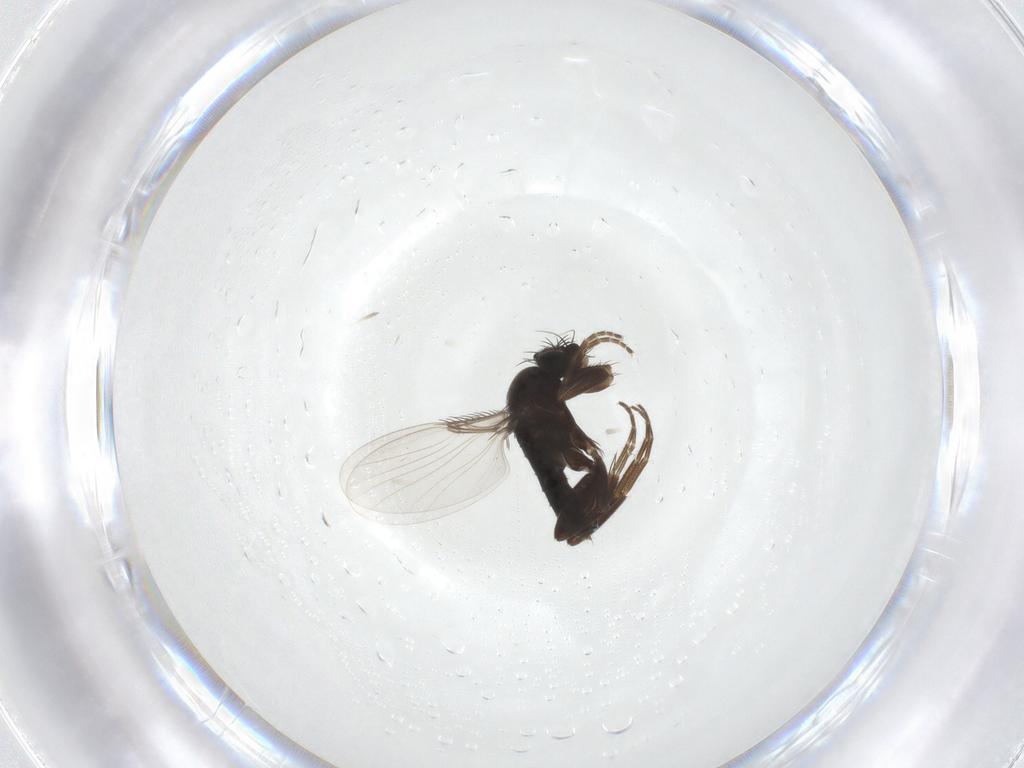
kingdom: Animalia
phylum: Arthropoda
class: Insecta
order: Diptera
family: Phoridae
